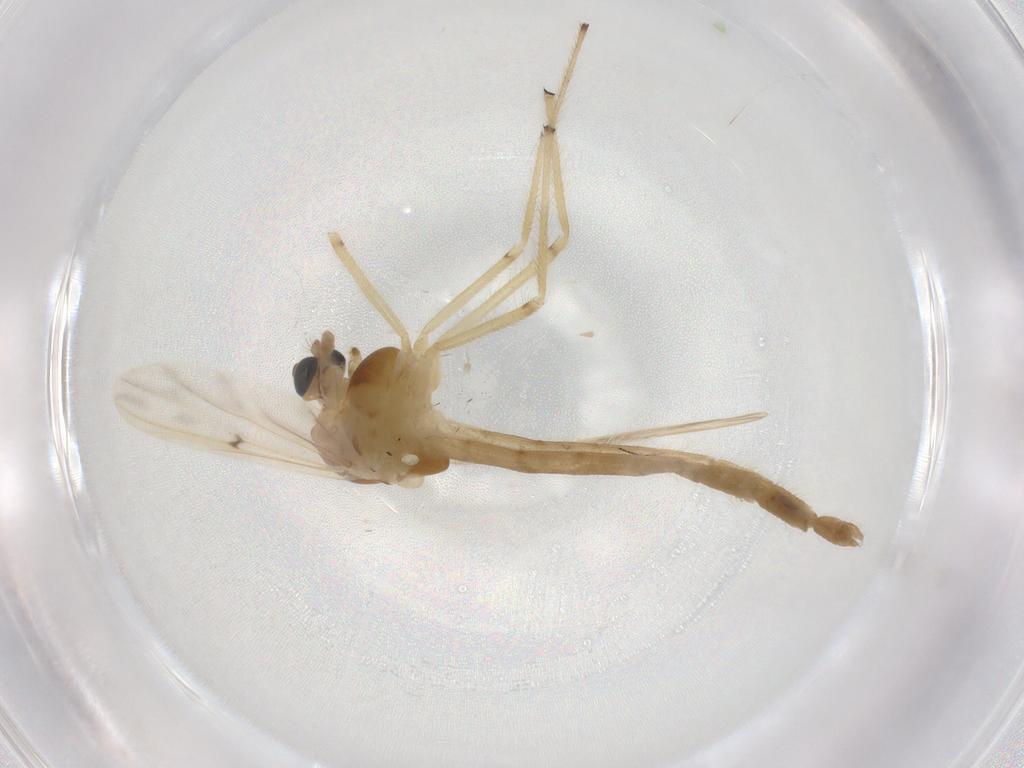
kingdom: Animalia
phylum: Arthropoda
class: Insecta
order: Diptera
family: Chironomidae
